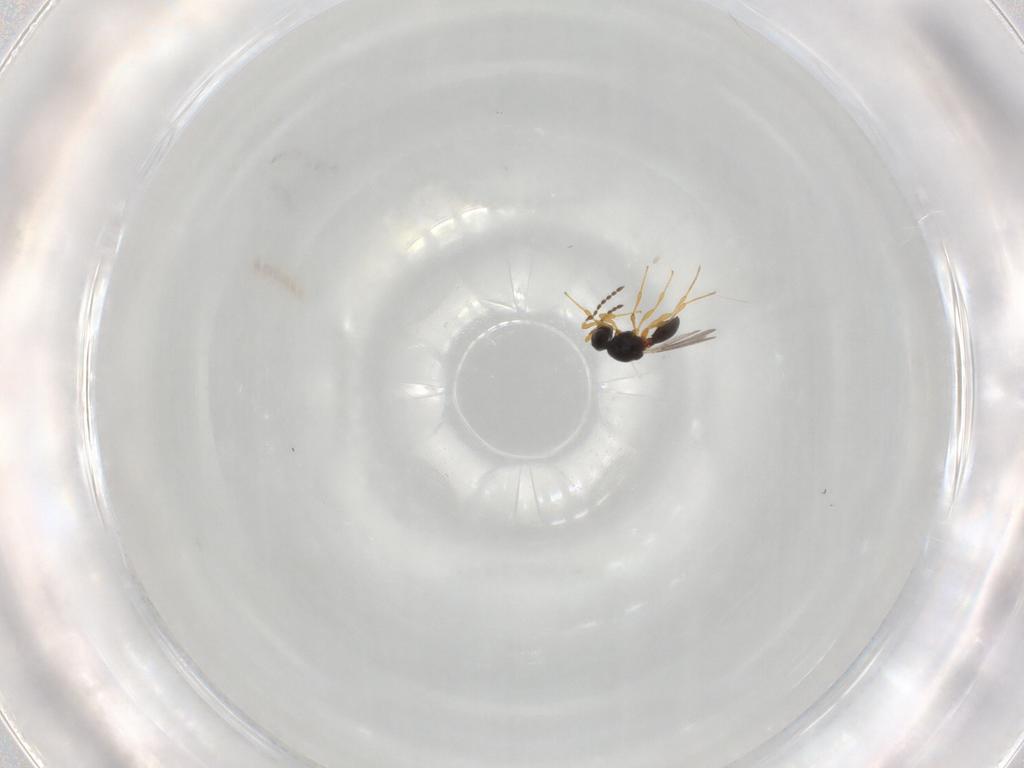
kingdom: Animalia
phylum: Arthropoda
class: Insecta
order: Hymenoptera
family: Platygastridae
